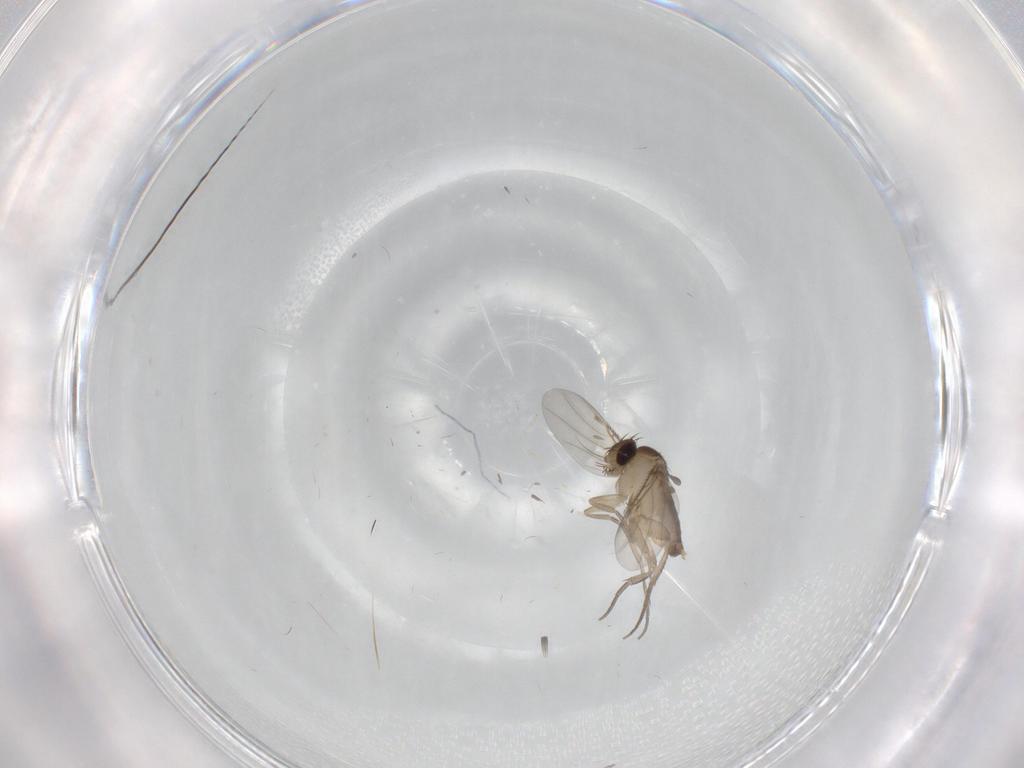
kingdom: Animalia
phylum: Arthropoda
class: Insecta
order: Diptera
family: Phoridae
